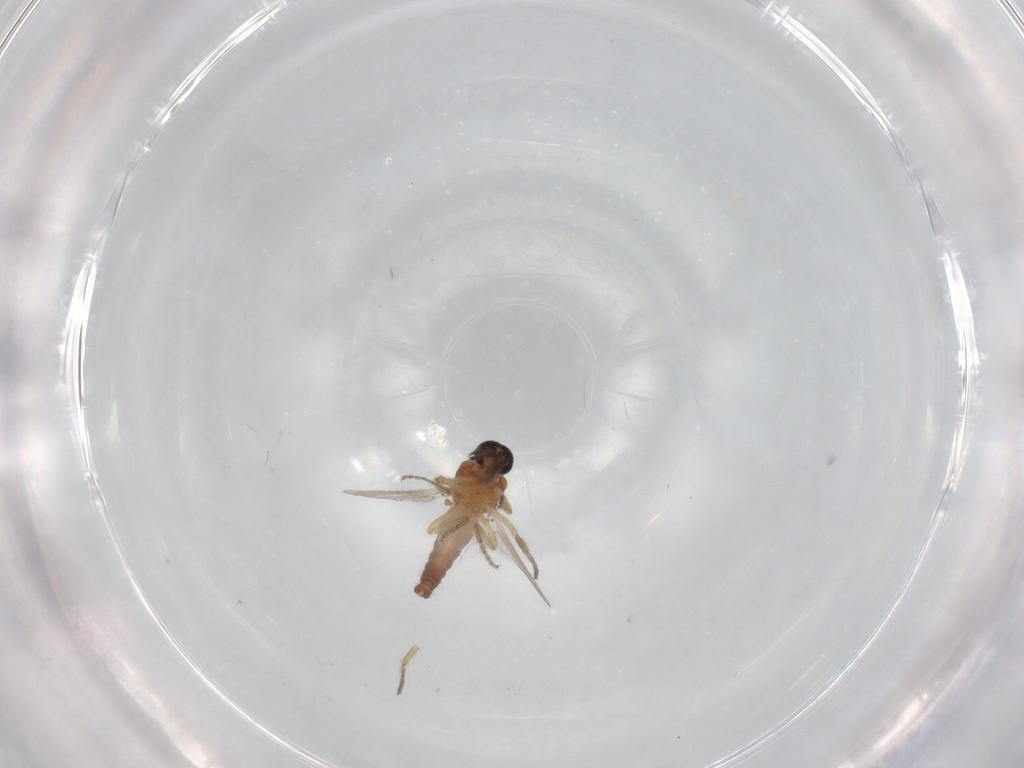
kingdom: Animalia
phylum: Arthropoda
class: Insecta
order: Diptera
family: Ceratopogonidae
